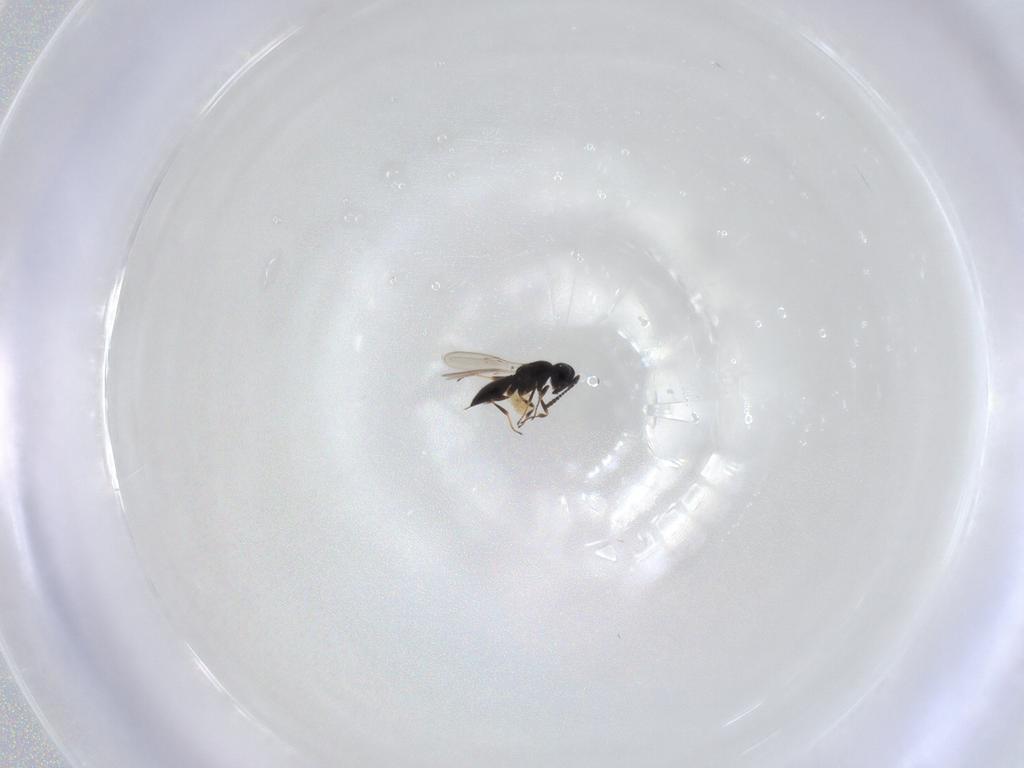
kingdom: Animalia
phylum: Arthropoda
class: Insecta
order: Hymenoptera
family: Scelionidae
